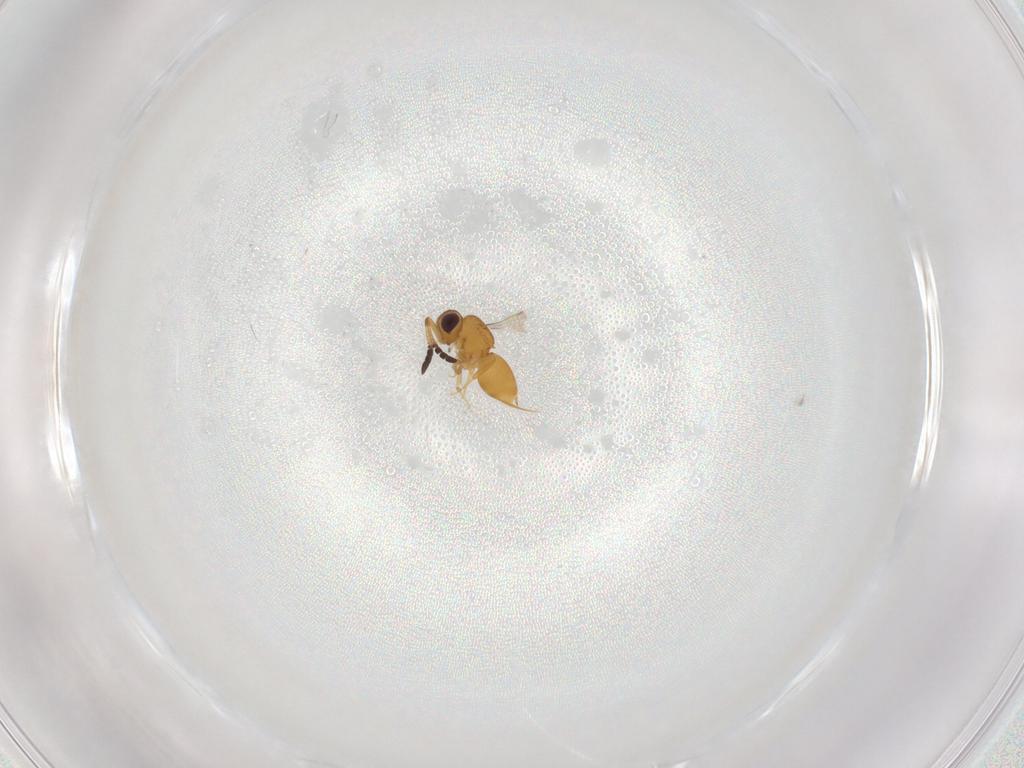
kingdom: Animalia
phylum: Arthropoda
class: Insecta
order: Hymenoptera
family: Ceraphronidae
